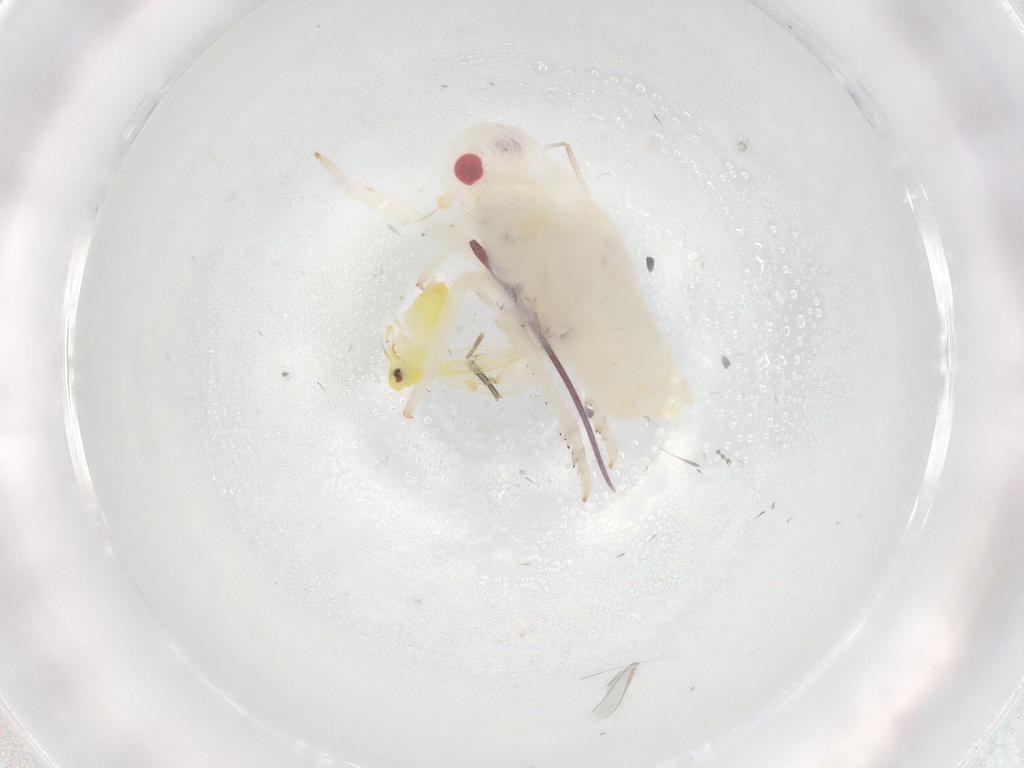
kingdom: Animalia
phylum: Arthropoda
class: Insecta
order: Hemiptera
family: Aleyrodidae
